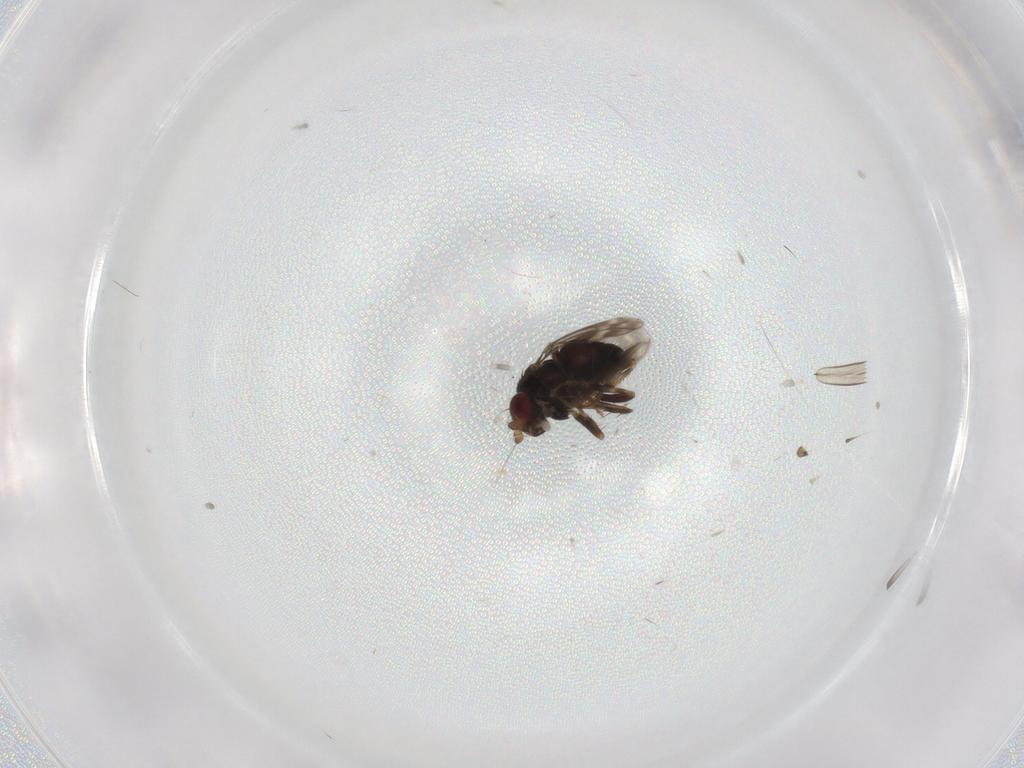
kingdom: Animalia
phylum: Arthropoda
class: Insecta
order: Diptera
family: Sphaeroceridae
